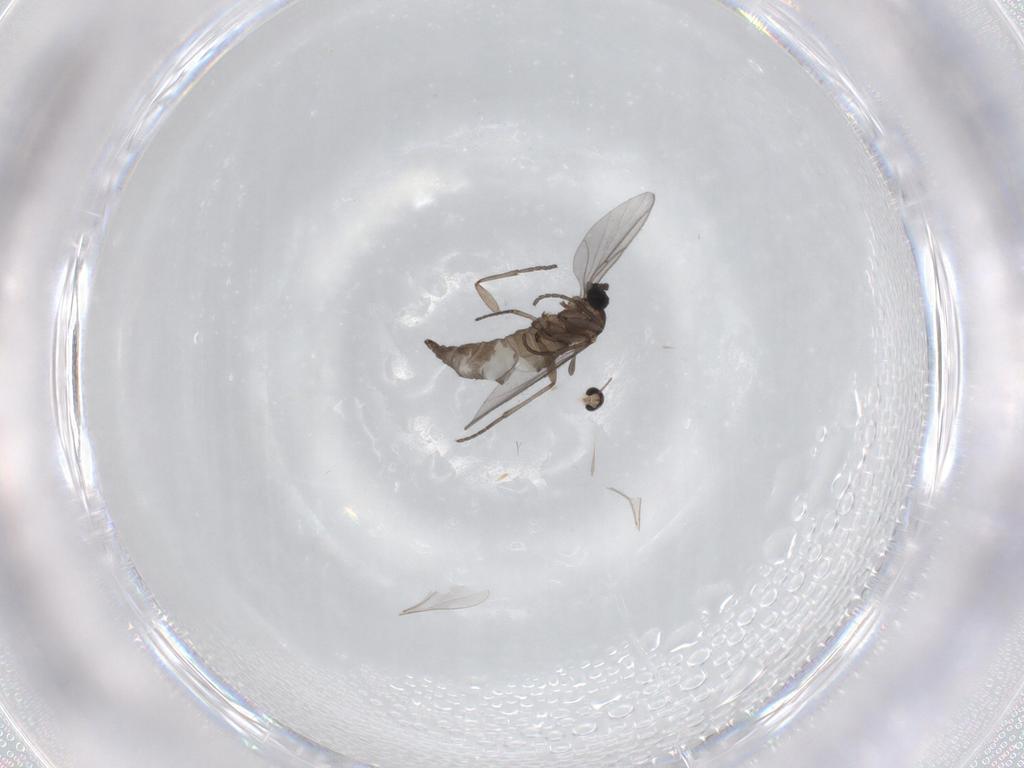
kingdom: Animalia
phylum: Arthropoda
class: Insecta
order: Diptera
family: Cecidomyiidae
